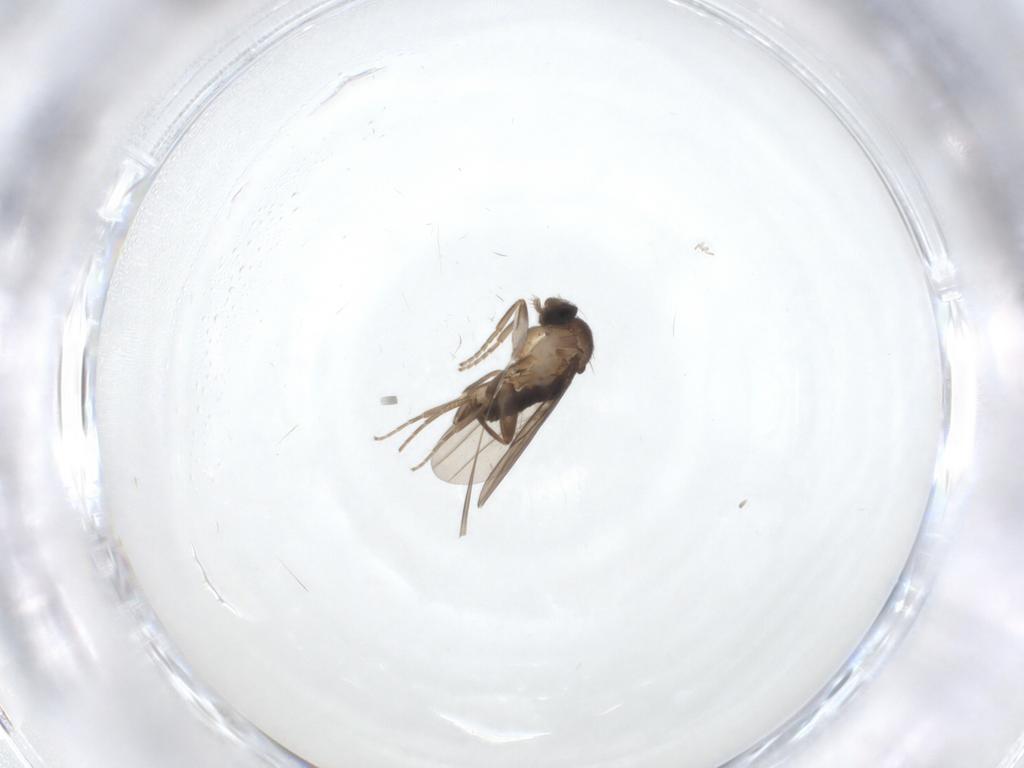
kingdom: Animalia
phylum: Arthropoda
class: Insecta
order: Diptera
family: Cecidomyiidae
